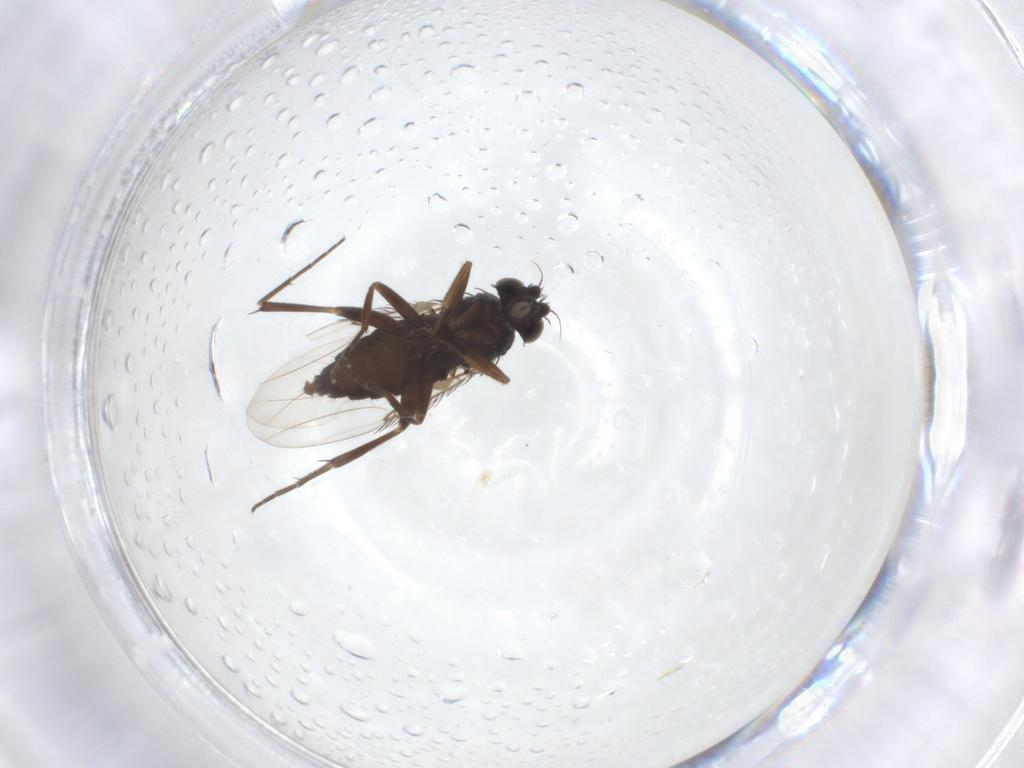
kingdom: Animalia
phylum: Arthropoda
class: Insecta
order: Diptera
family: Phoridae
